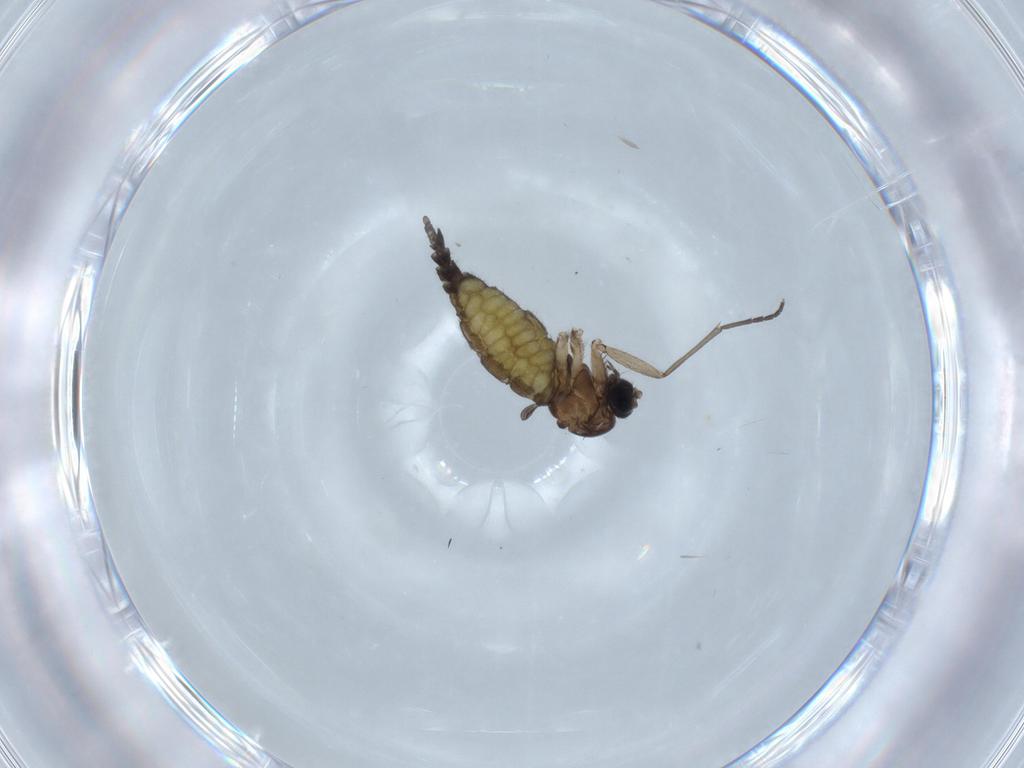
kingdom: Animalia
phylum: Arthropoda
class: Insecta
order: Diptera
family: Sciaridae
